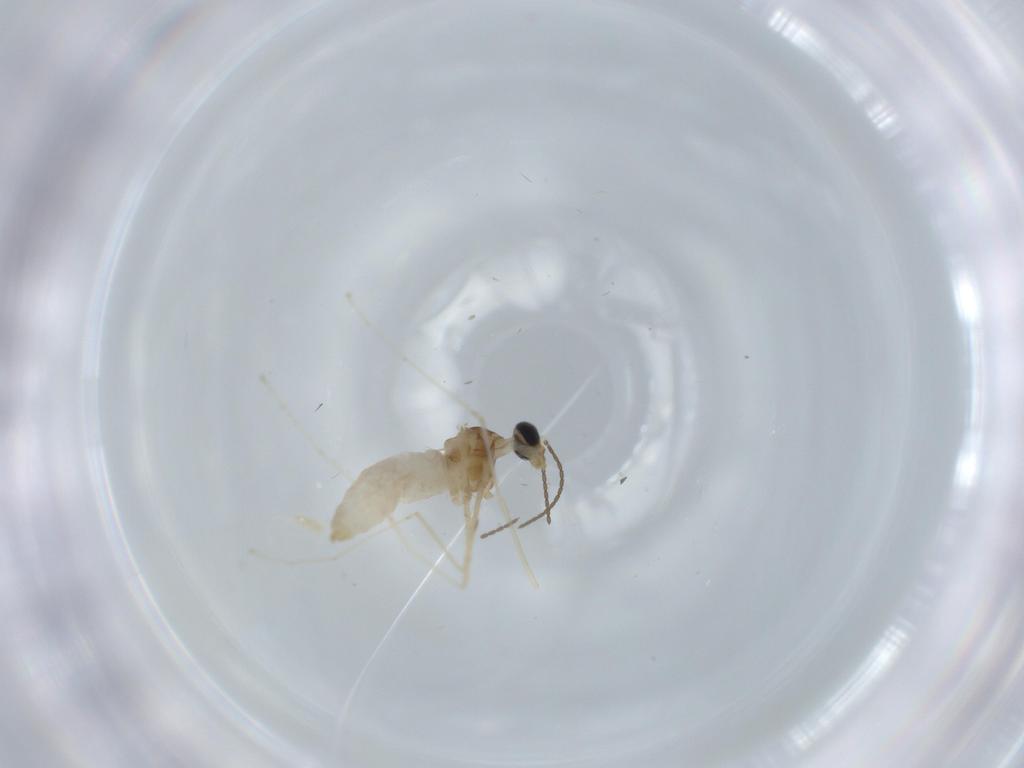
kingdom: Animalia
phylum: Arthropoda
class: Insecta
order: Diptera
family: Cecidomyiidae
